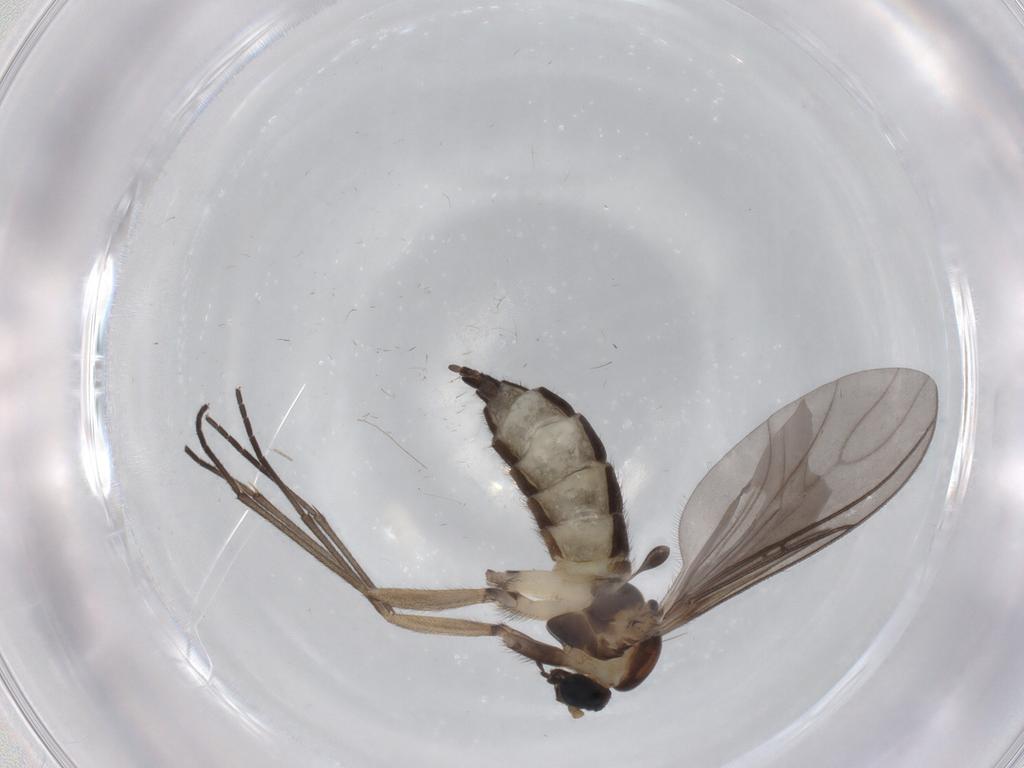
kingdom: Animalia
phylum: Arthropoda
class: Insecta
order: Diptera
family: Sciaridae
